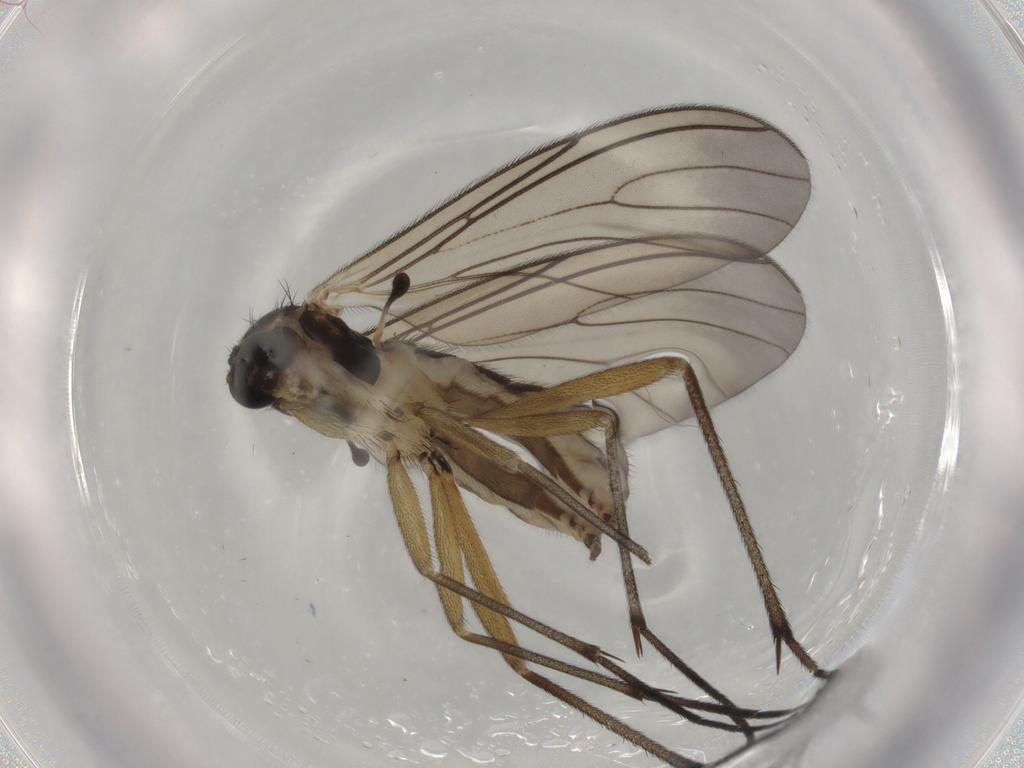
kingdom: Animalia
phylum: Arthropoda
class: Insecta
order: Diptera
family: Sciaridae
